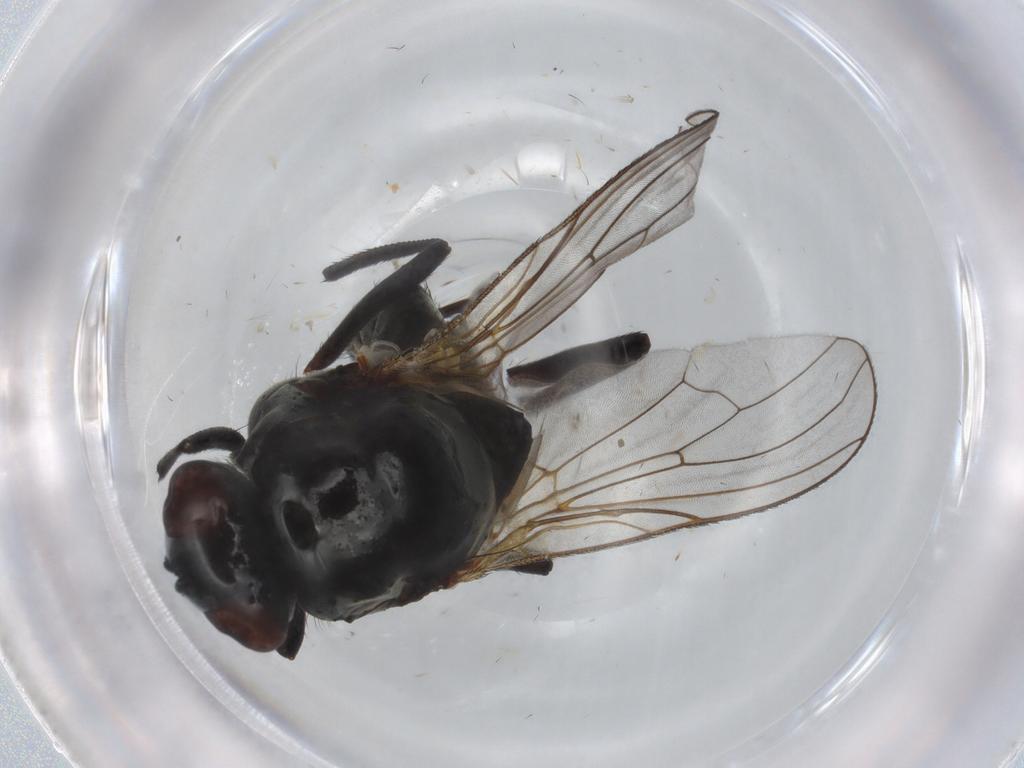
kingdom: Animalia
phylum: Arthropoda
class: Insecta
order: Diptera
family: Anthomyiidae
